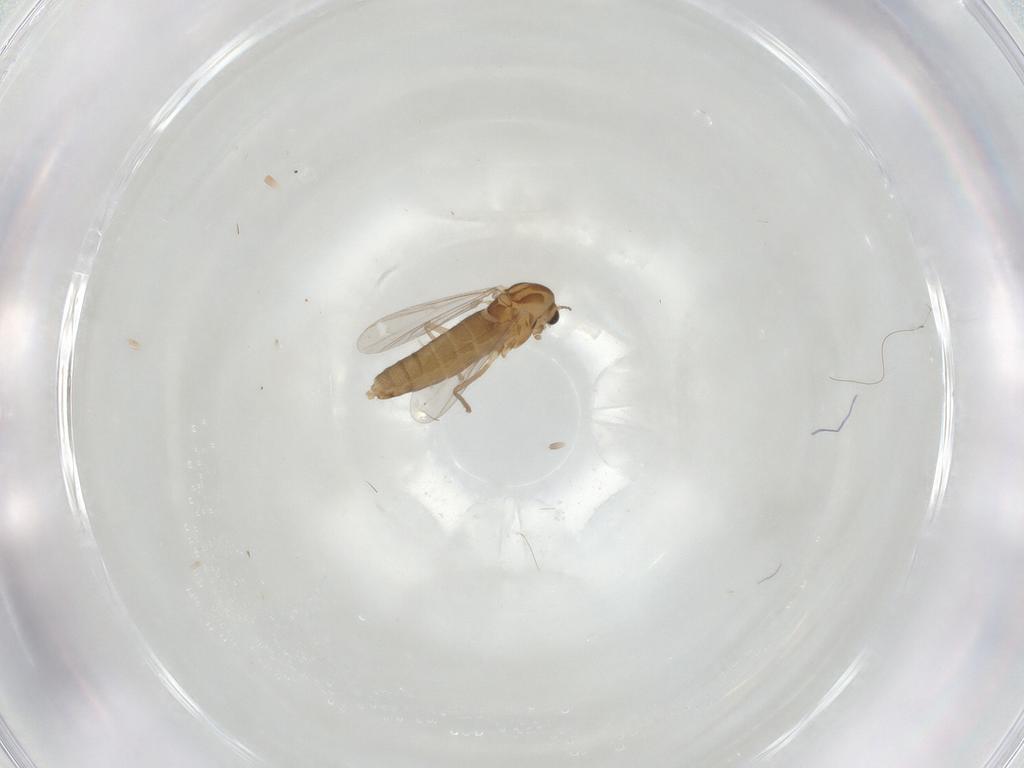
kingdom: Animalia
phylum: Arthropoda
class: Insecta
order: Diptera
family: Chironomidae
